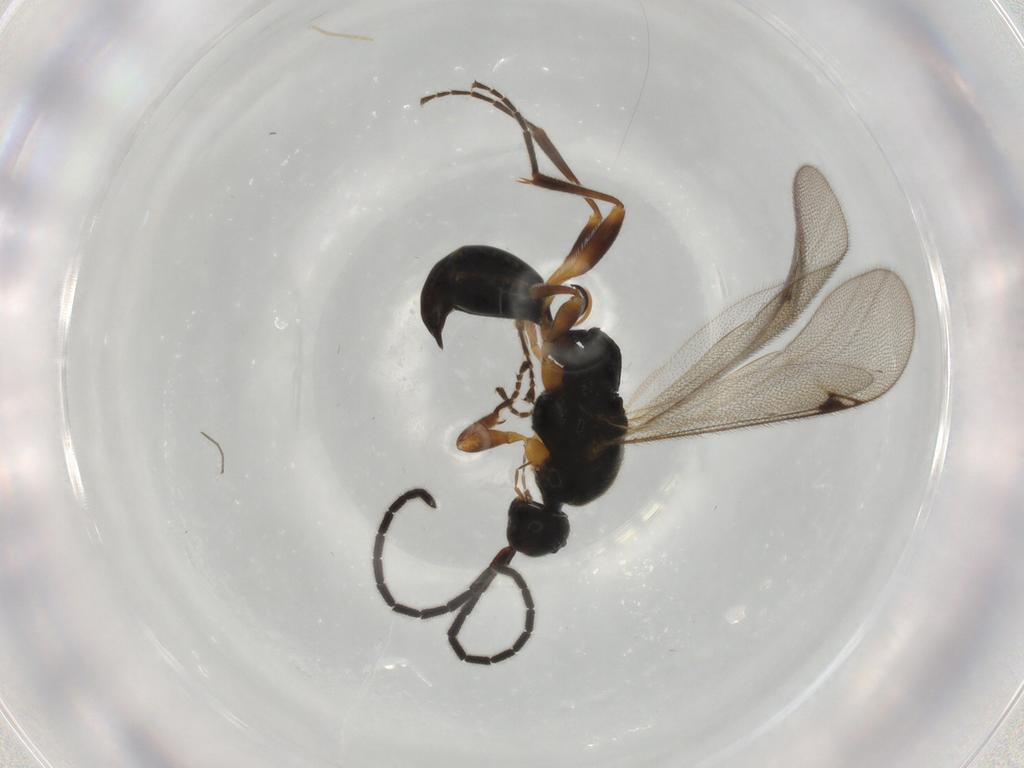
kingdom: Animalia
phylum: Arthropoda
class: Insecta
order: Hymenoptera
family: Proctotrupidae
